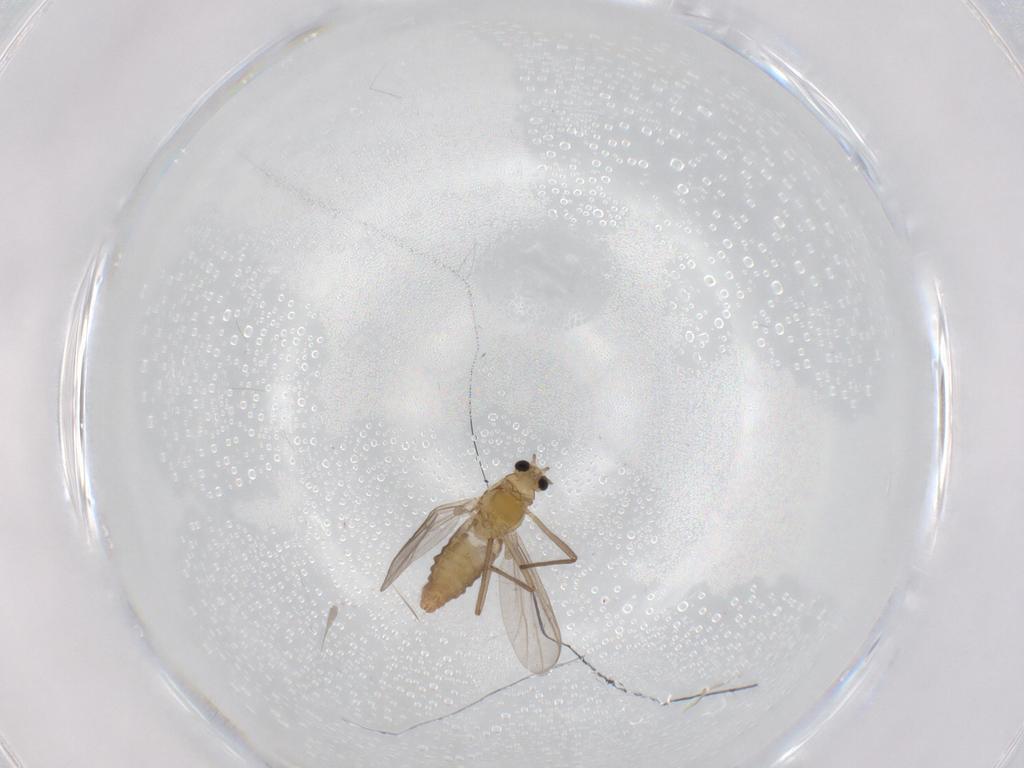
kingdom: Animalia
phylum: Arthropoda
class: Insecta
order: Diptera
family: Chironomidae
